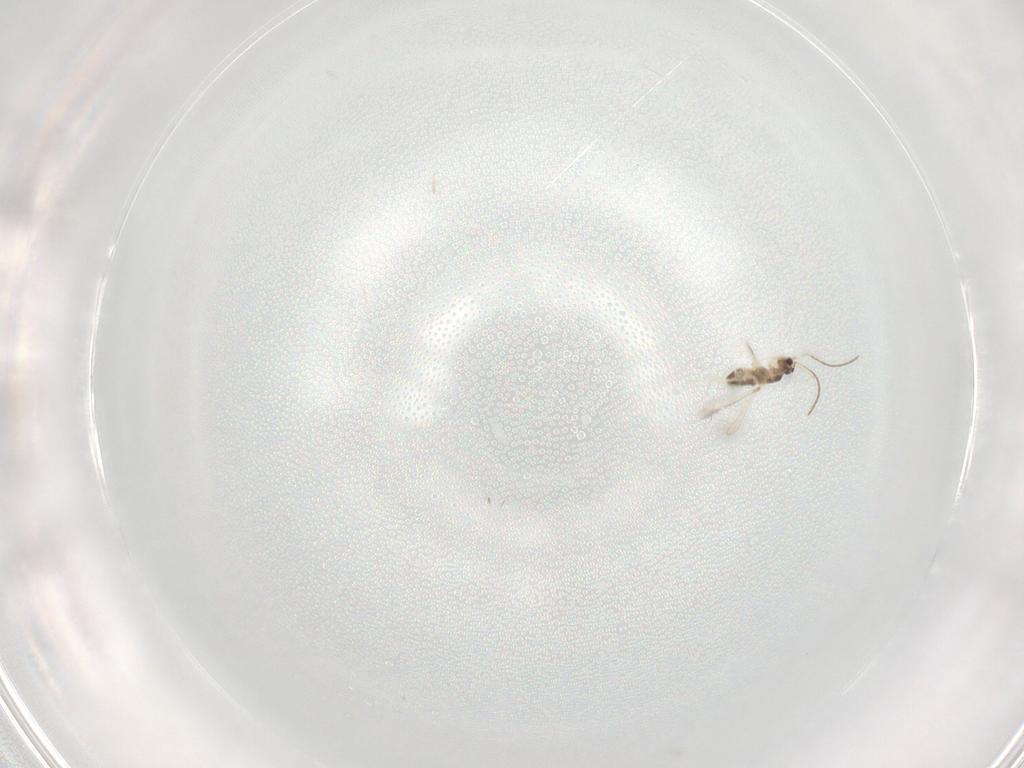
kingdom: Animalia
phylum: Arthropoda
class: Insecta
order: Hymenoptera
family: Mymaridae
